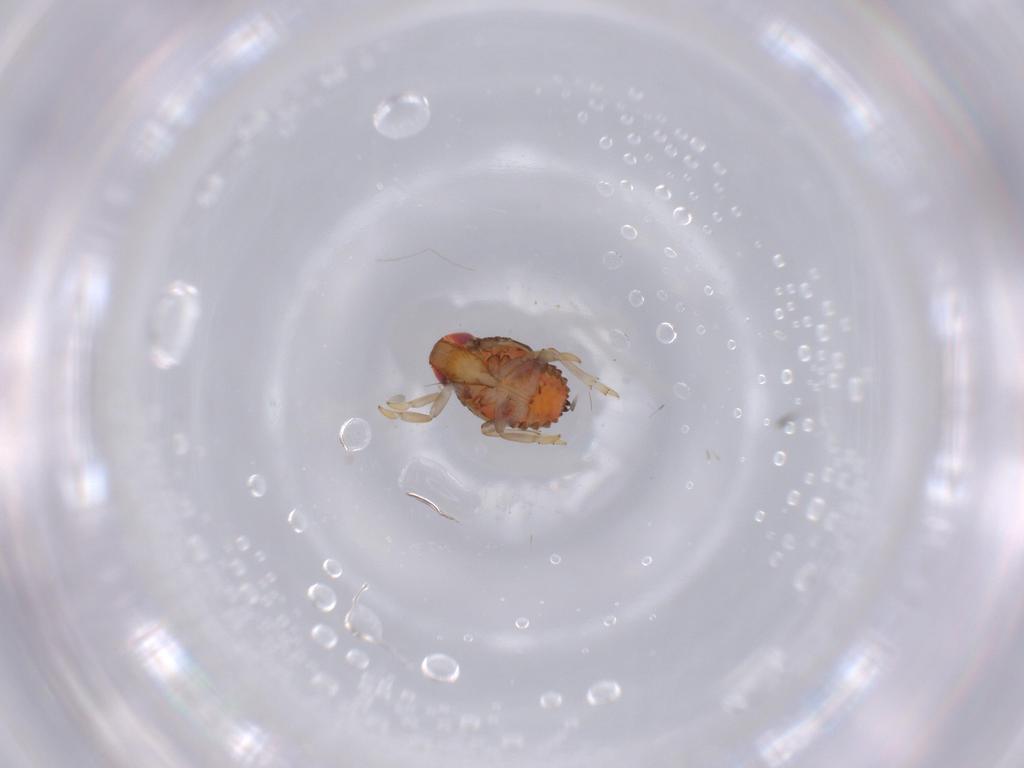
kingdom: Animalia
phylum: Arthropoda
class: Insecta
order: Hemiptera
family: Issidae
